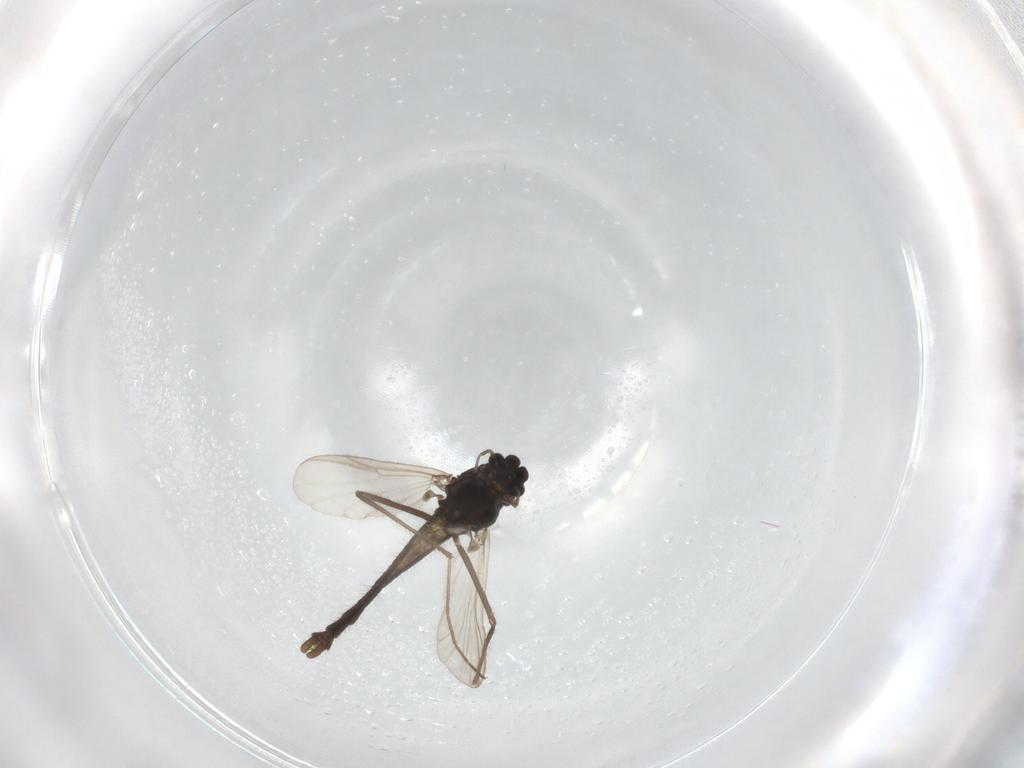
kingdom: Animalia
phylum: Arthropoda
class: Insecta
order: Diptera
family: Chironomidae
